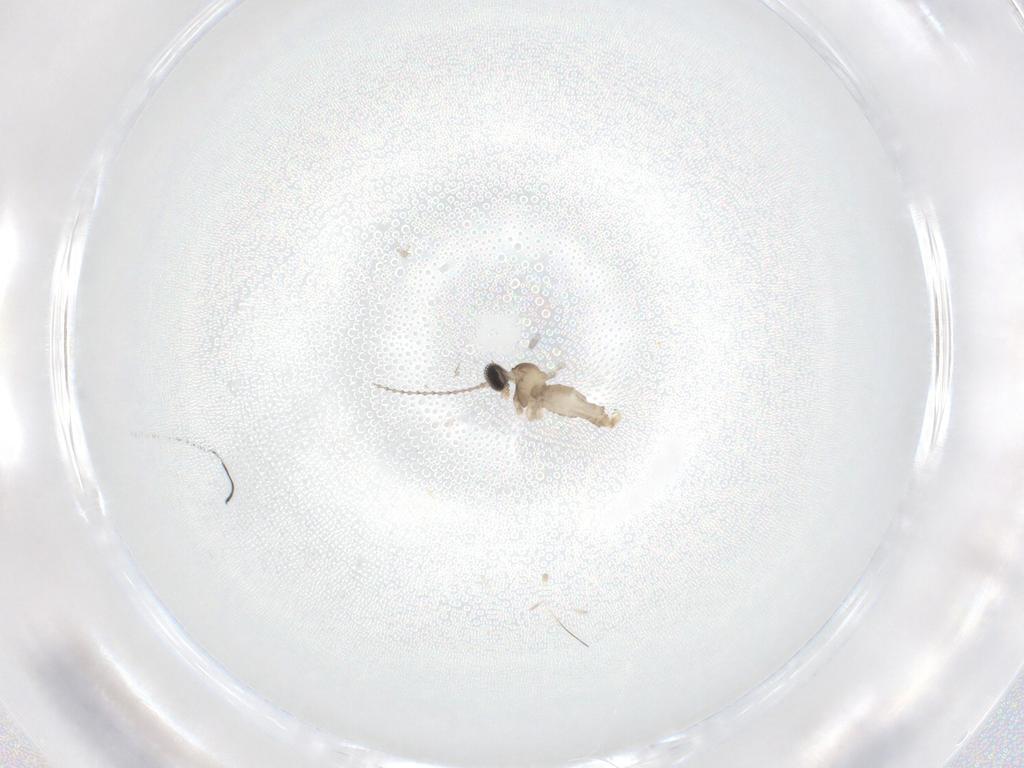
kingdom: Animalia
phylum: Arthropoda
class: Insecta
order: Diptera
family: Cecidomyiidae
